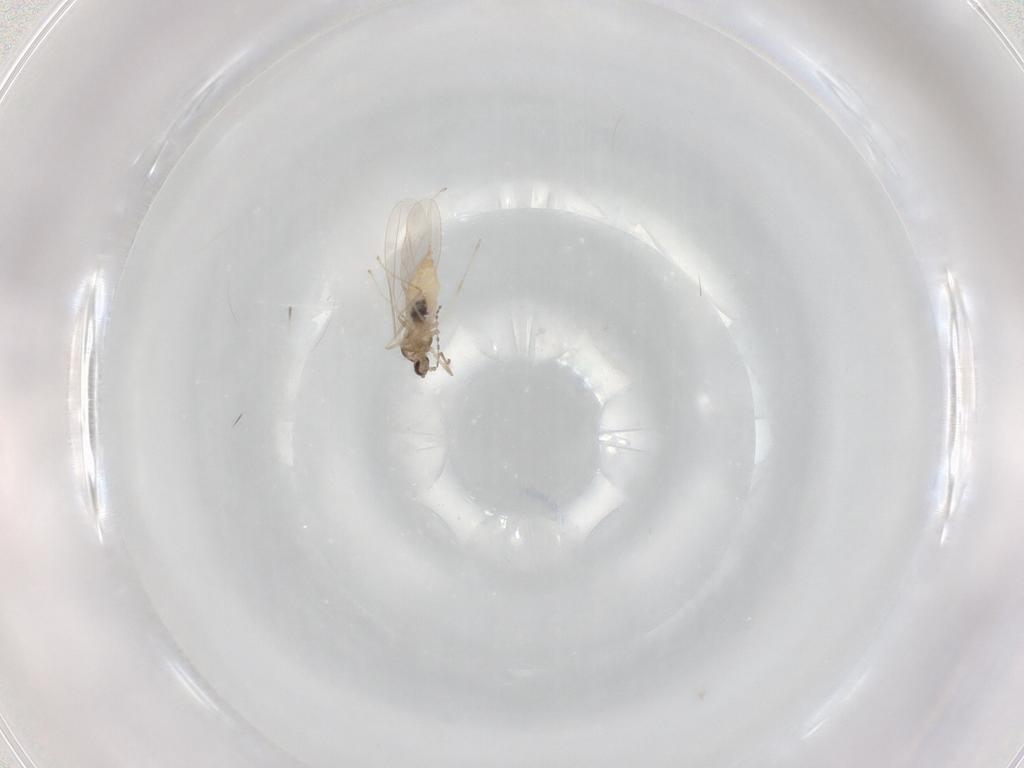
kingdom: Animalia
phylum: Arthropoda
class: Insecta
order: Diptera
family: Cecidomyiidae
